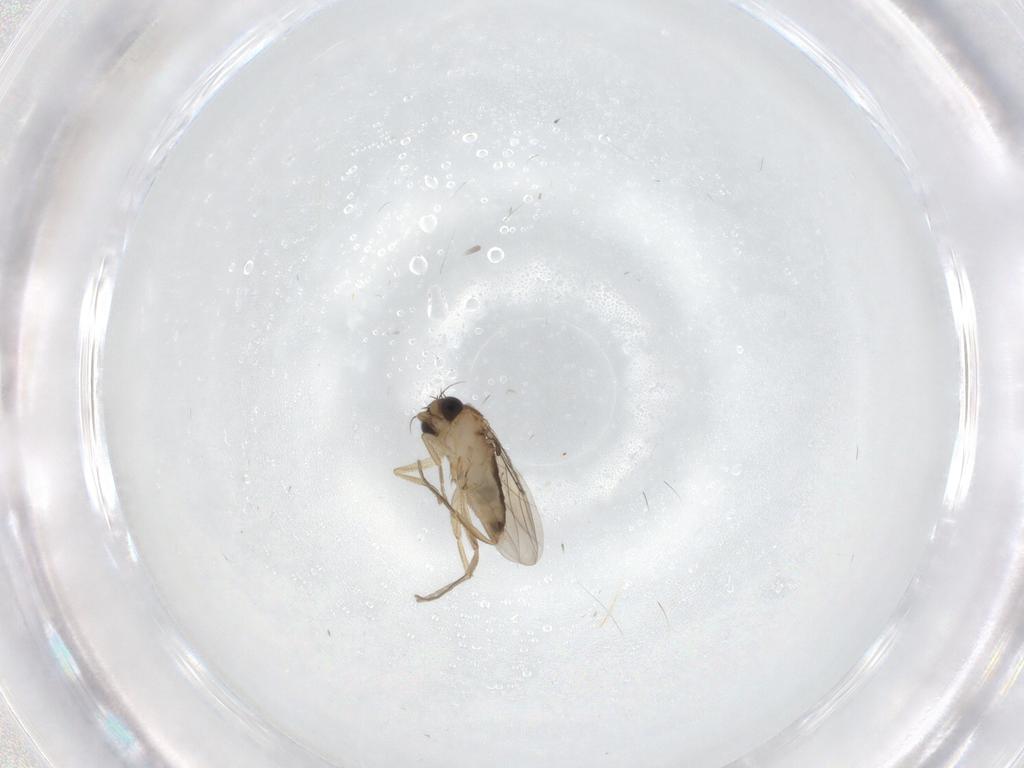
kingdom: Animalia
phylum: Arthropoda
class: Insecta
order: Diptera
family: Phoridae
